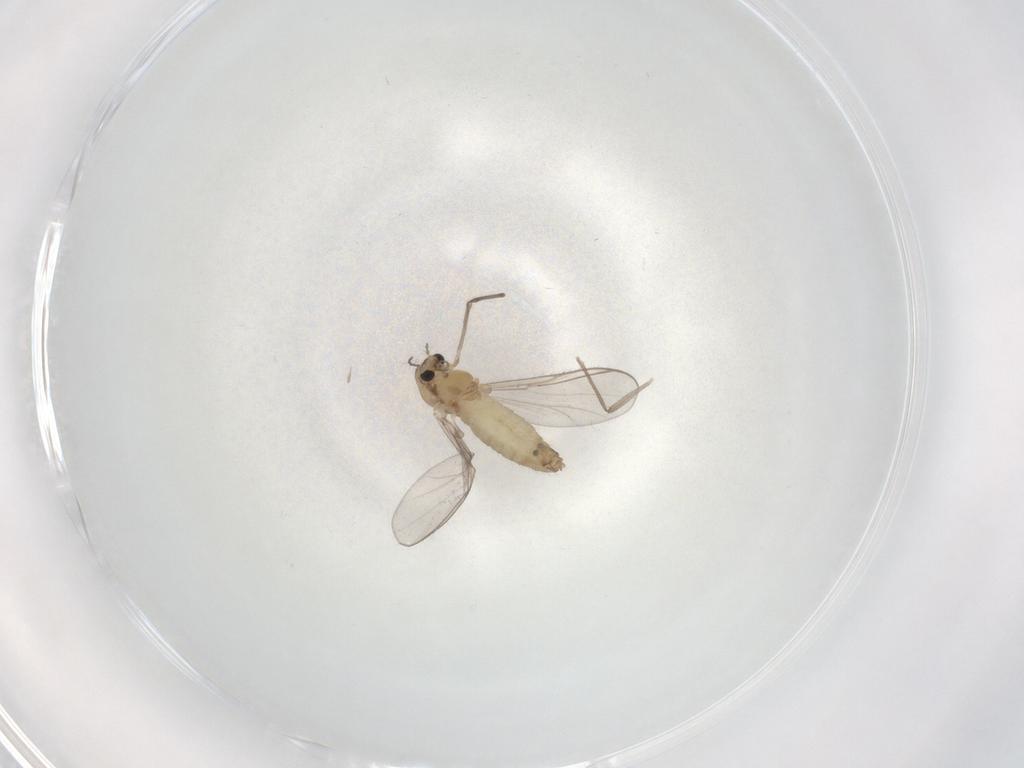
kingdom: Animalia
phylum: Arthropoda
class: Insecta
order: Diptera
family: Chironomidae
